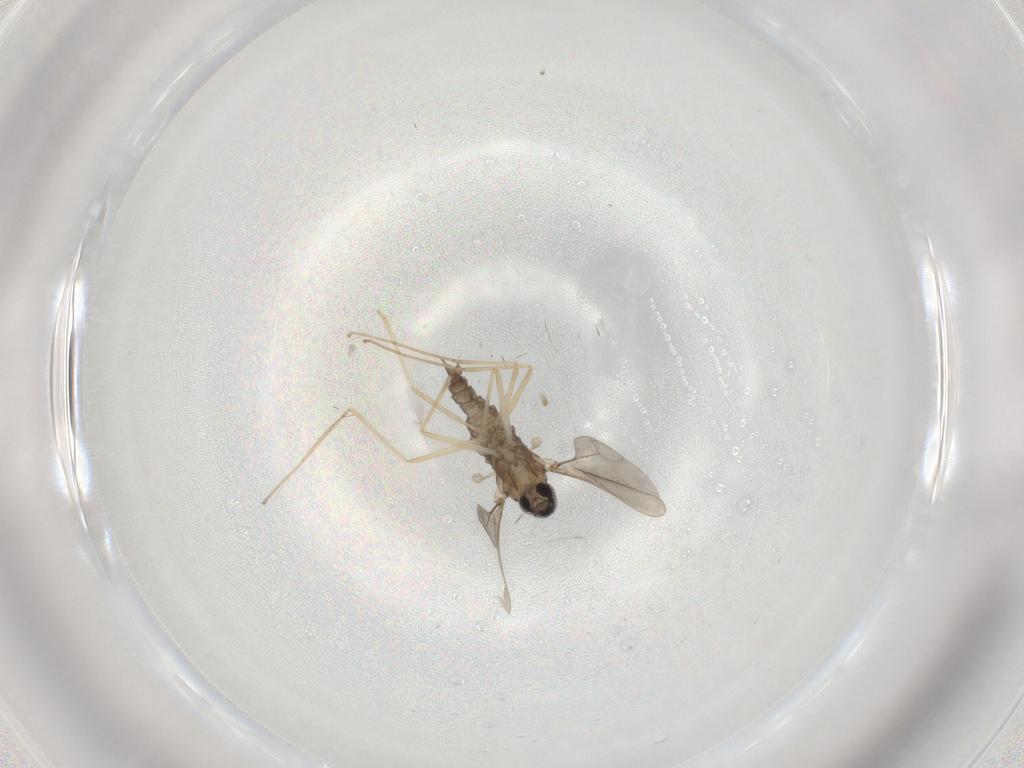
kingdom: Animalia
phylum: Arthropoda
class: Insecta
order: Diptera
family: Dolichopodidae
